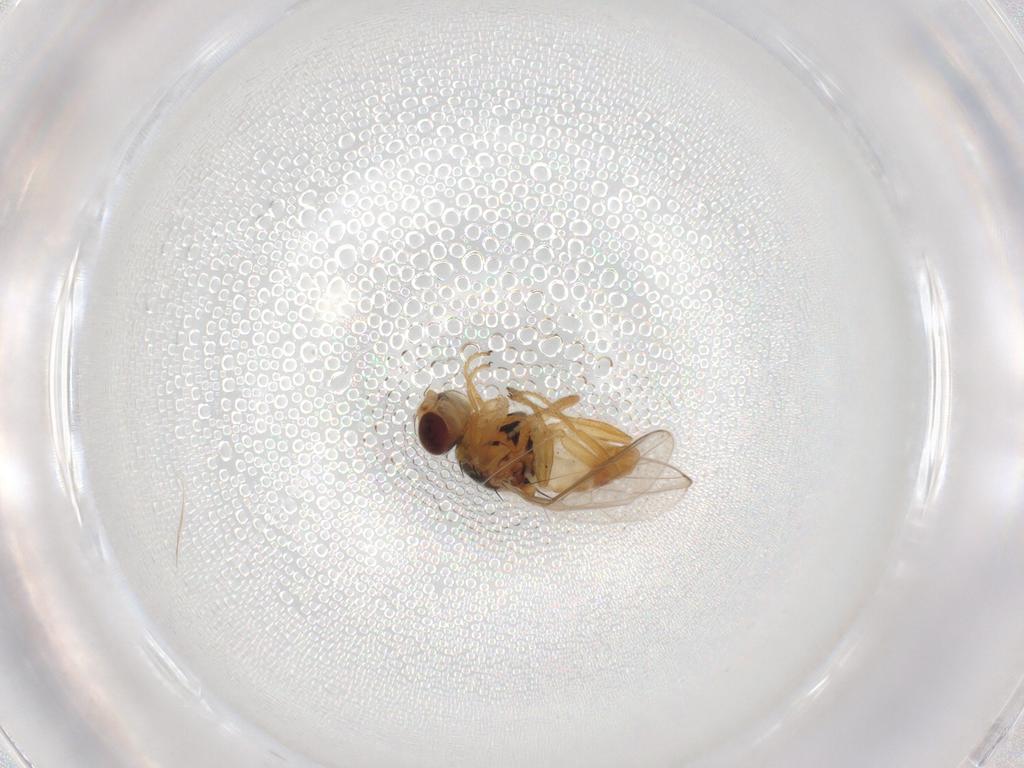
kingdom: Animalia
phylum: Arthropoda
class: Insecta
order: Diptera
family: Chloropidae
